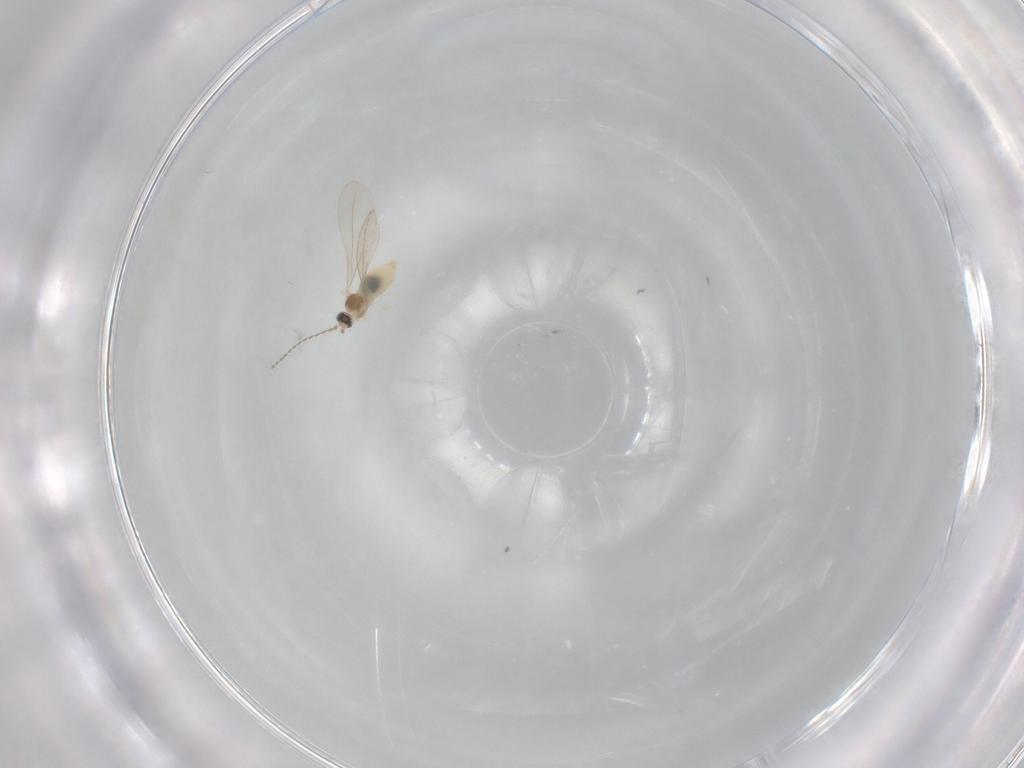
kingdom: Animalia
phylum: Arthropoda
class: Insecta
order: Diptera
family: Cecidomyiidae
